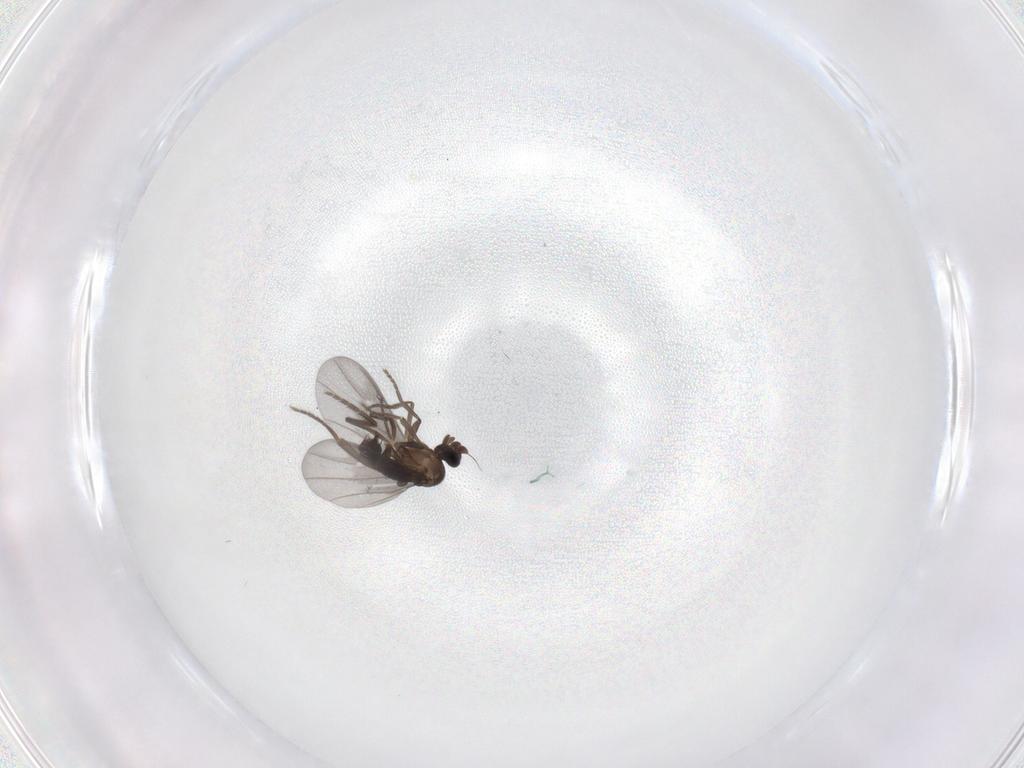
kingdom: Animalia
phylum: Arthropoda
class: Insecta
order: Diptera
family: Phoridae
